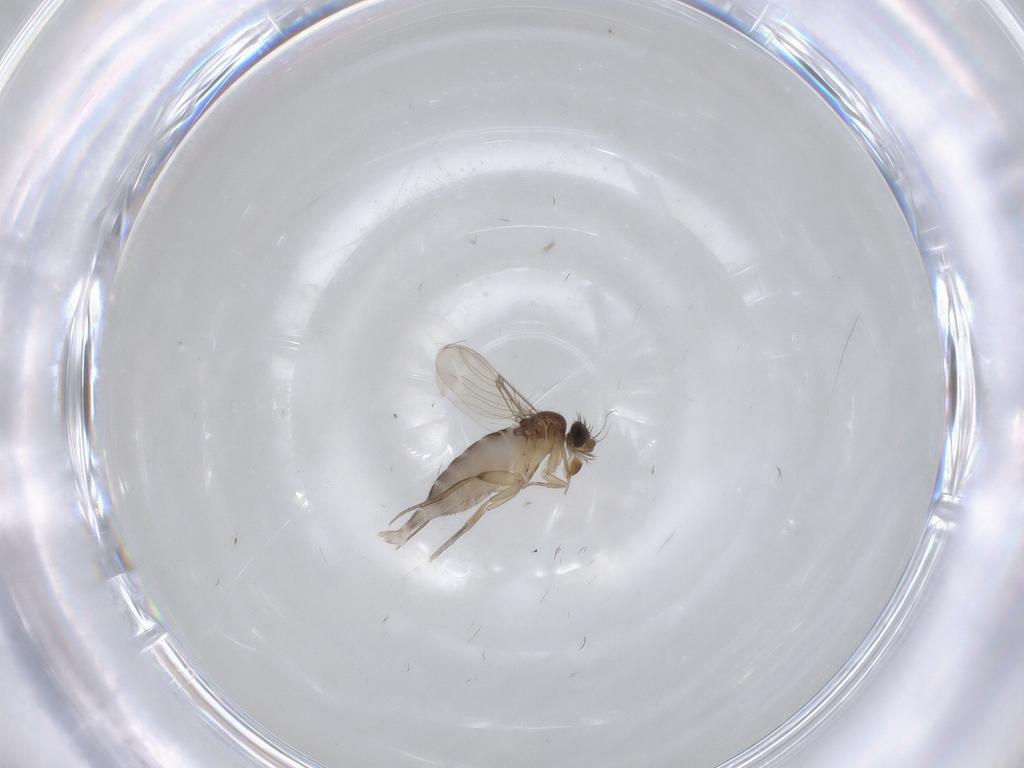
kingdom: Animalia
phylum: Arthropoda
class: Insecta
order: Diptera
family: Phoridae
